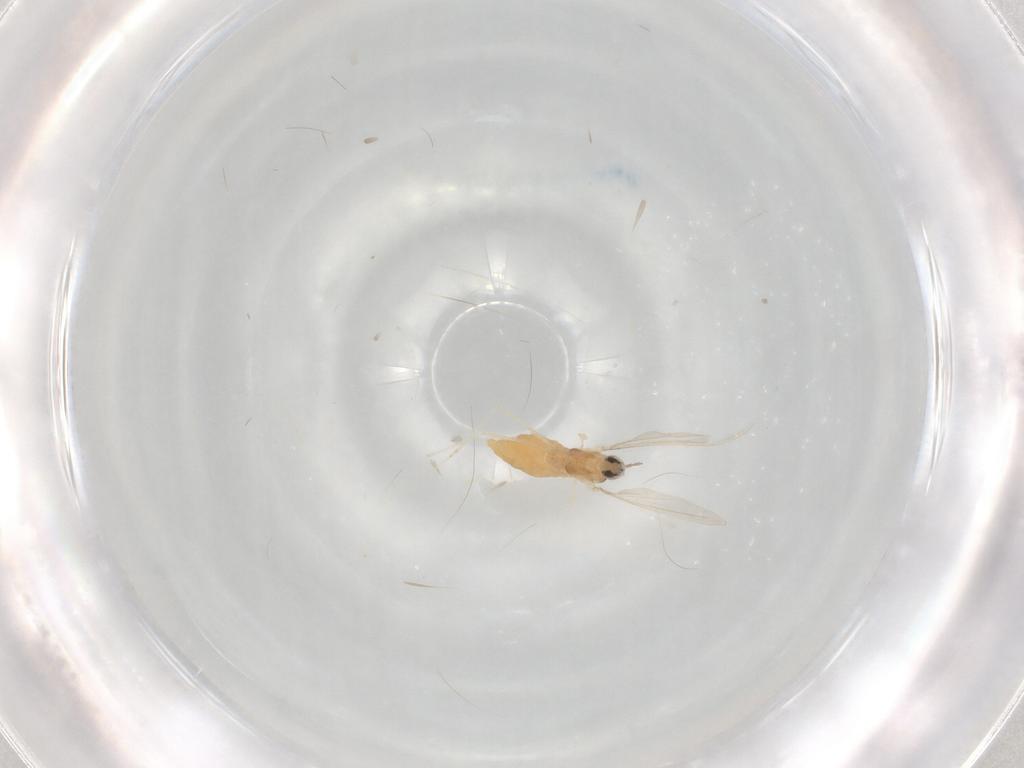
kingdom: Animalia
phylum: Arthropoda
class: Insecta
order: Diptera
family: Cecidomyiidae
